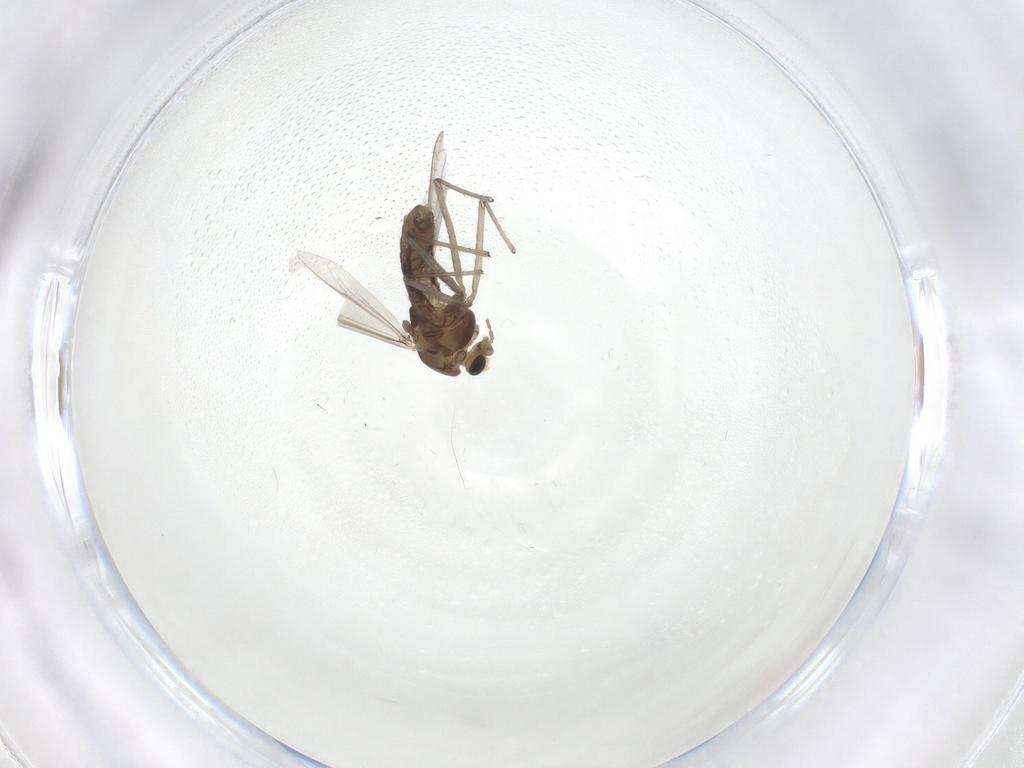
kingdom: Animalia
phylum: Arthropoda
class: Insecta
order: Diptera
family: Chironomidae
